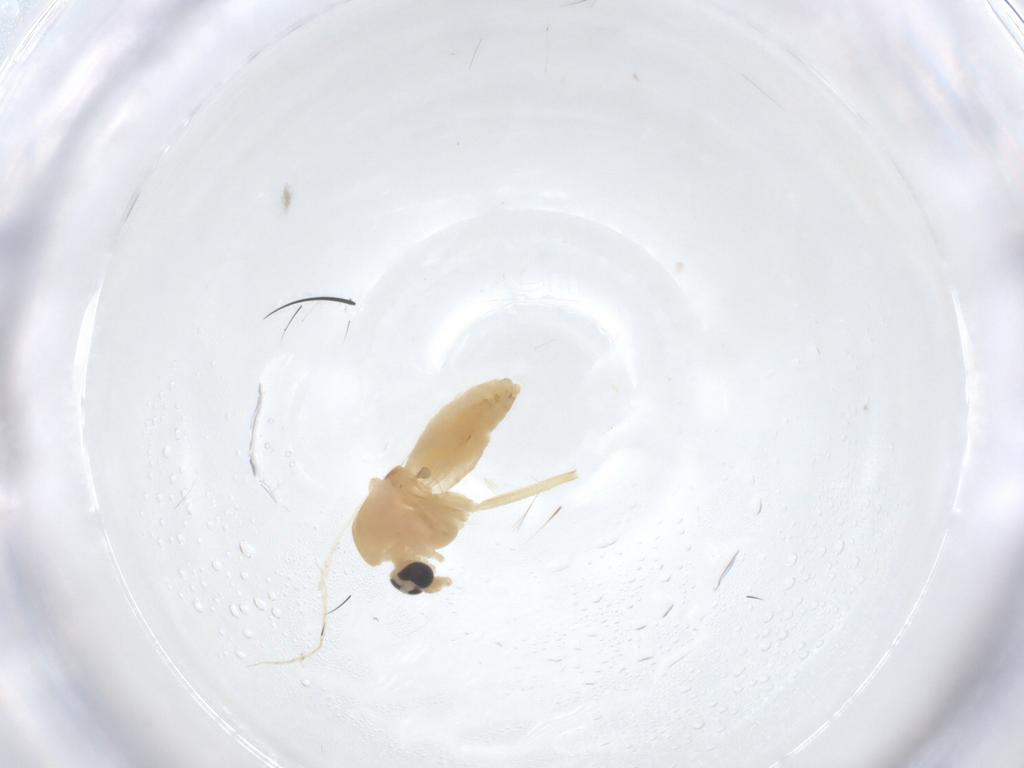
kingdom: Animalia
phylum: Arthropoda
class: Insecta
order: Diptera
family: Chironomidae
